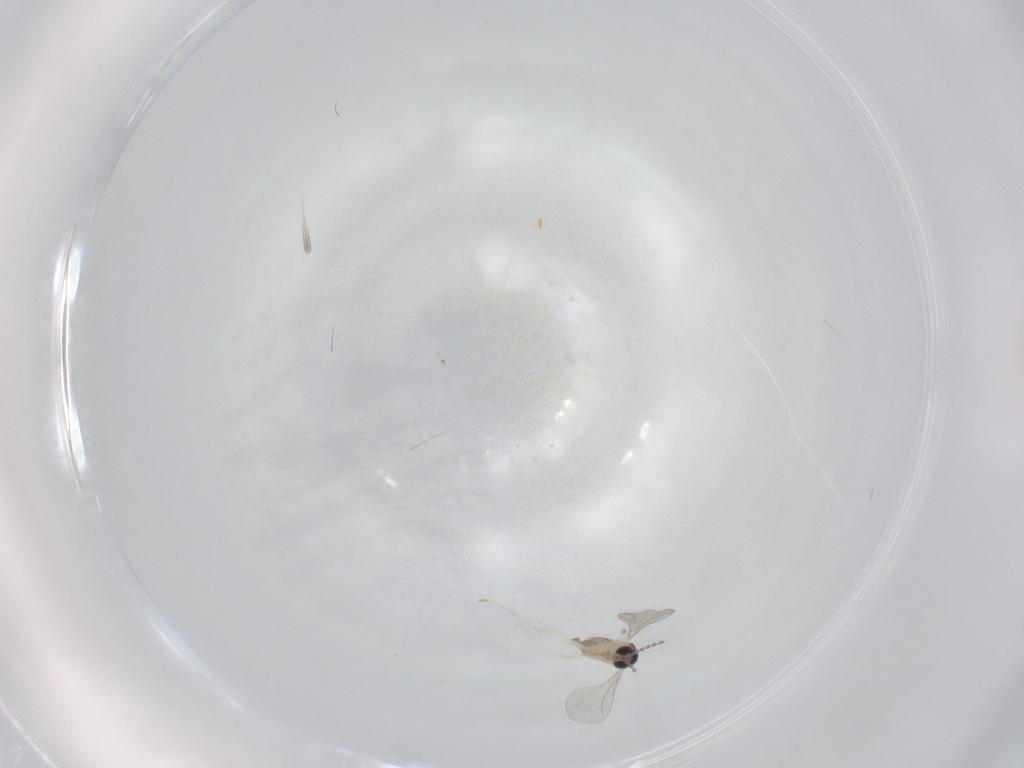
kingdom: Animalia
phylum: Arthropoda
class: Insecta
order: Diptera
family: Cecidomyiidae
